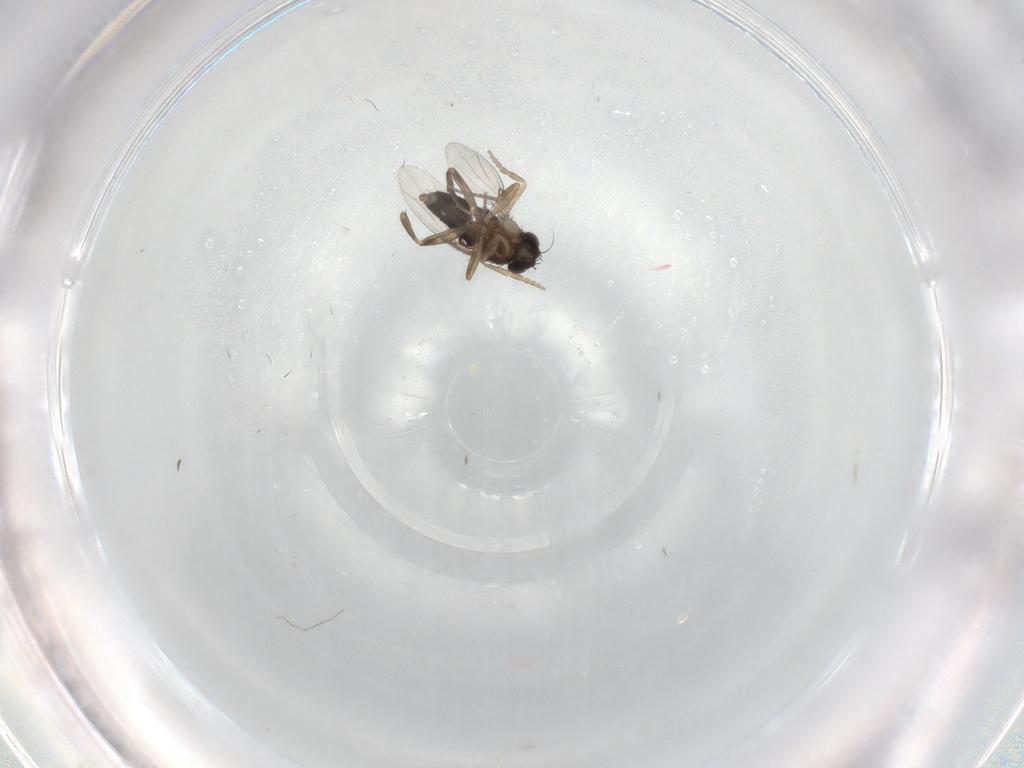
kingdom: Animalia
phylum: Arthropoda
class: Insecta
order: Diptera
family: Phoridae
